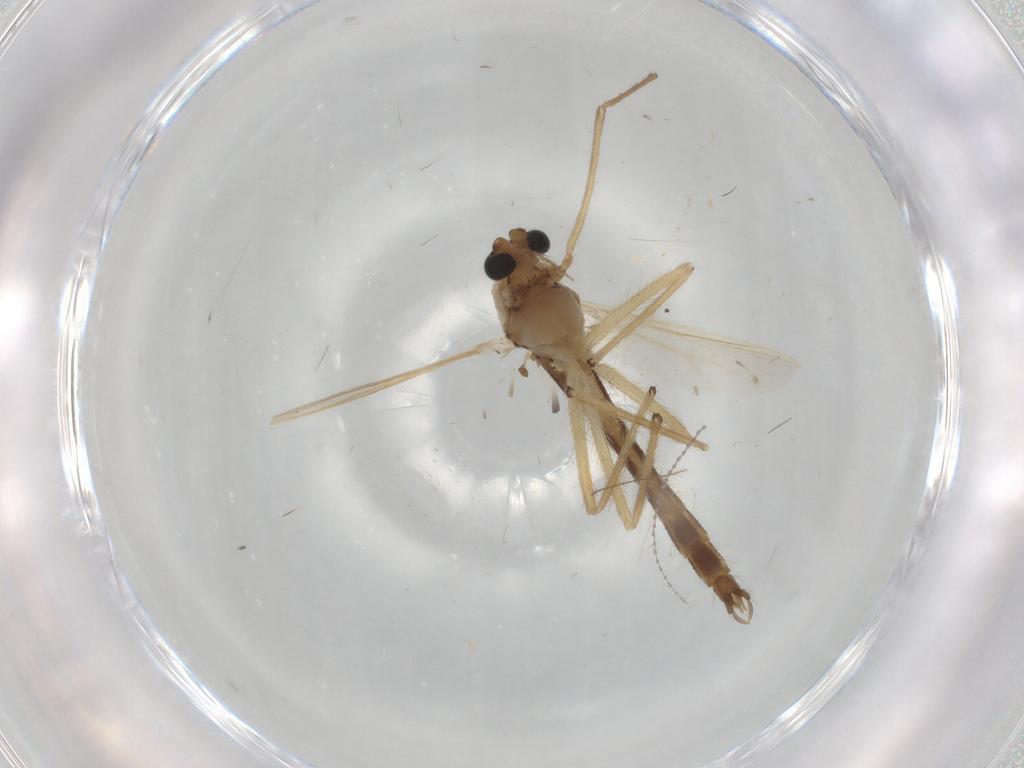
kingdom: Animalia
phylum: Arthropoda
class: Insecta
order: Diptera
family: Chironomidae
